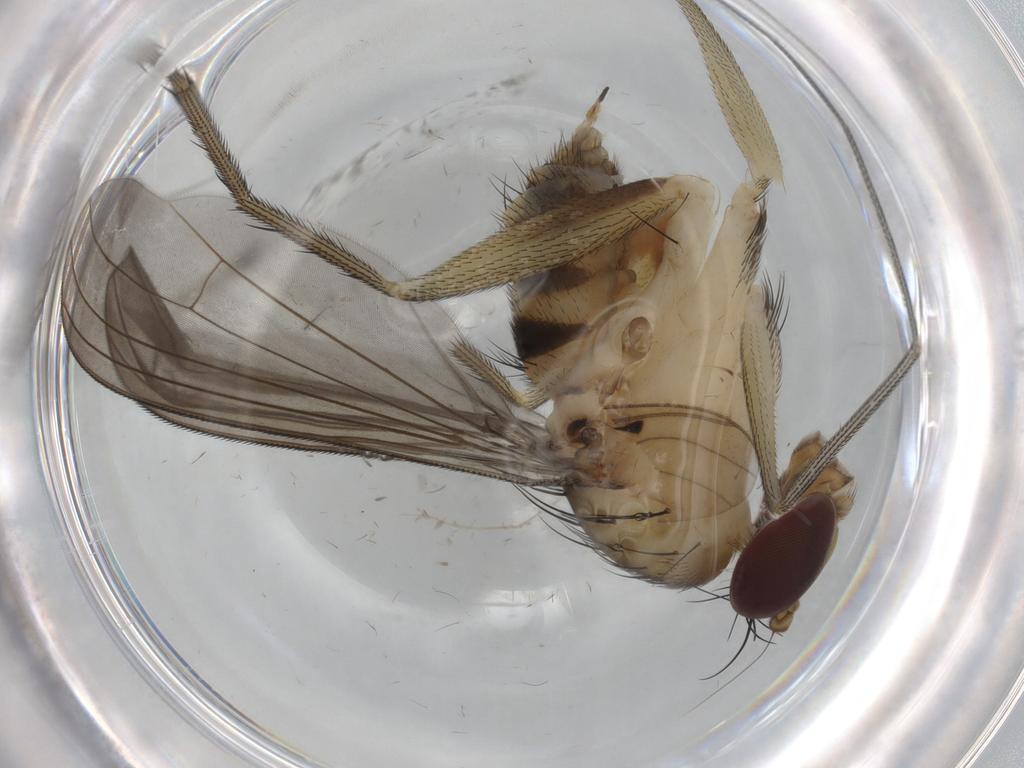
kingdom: Animalia
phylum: Arthropoda
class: Insecta
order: Diptera
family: Dolichopodidae
